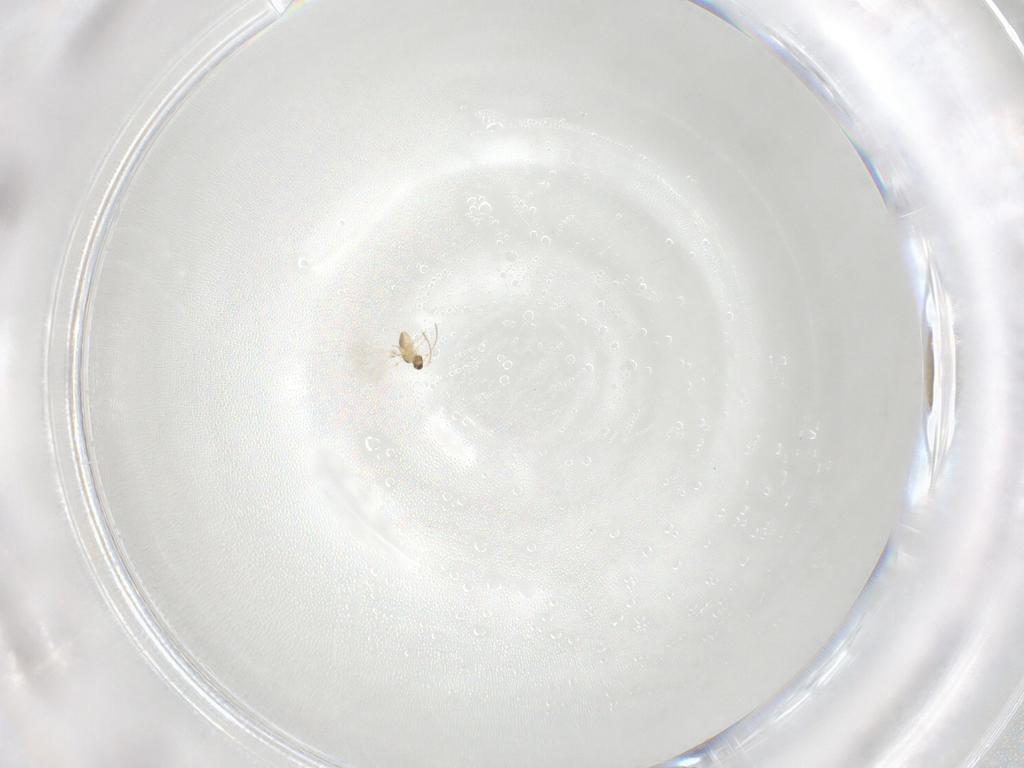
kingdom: Animalia
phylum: Arthropoda
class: Insecta
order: Hymenoptera
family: Mymaridae
